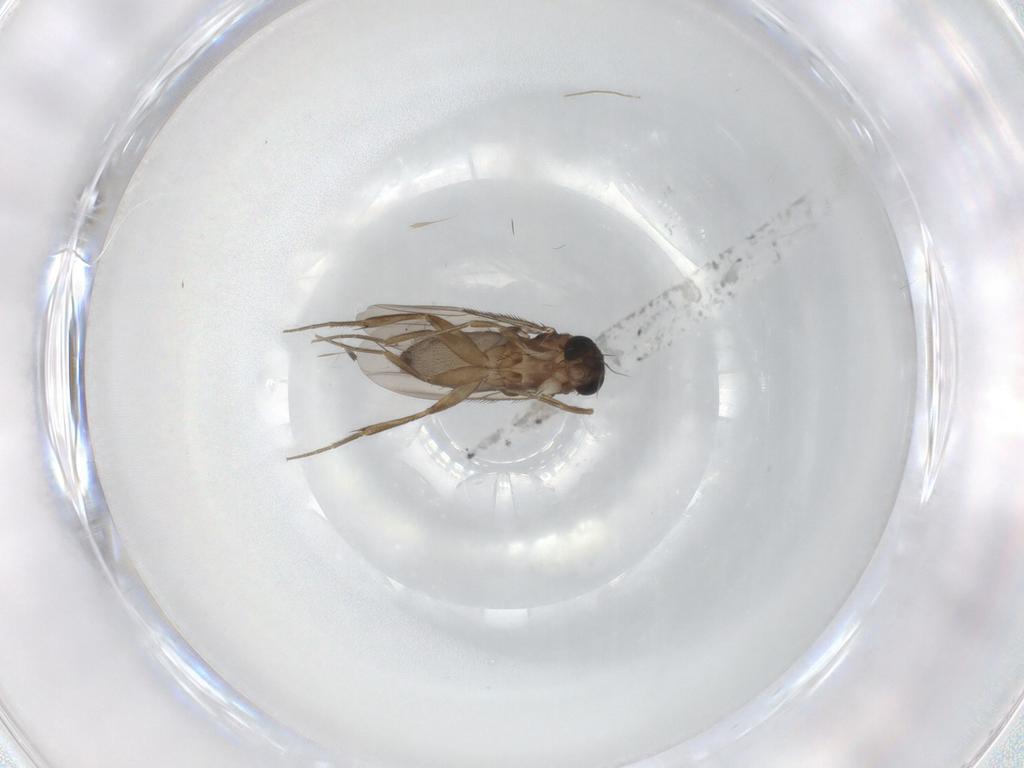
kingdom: Animalia
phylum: Arthropoda
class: Insecta
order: Diptera
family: Phoridae
